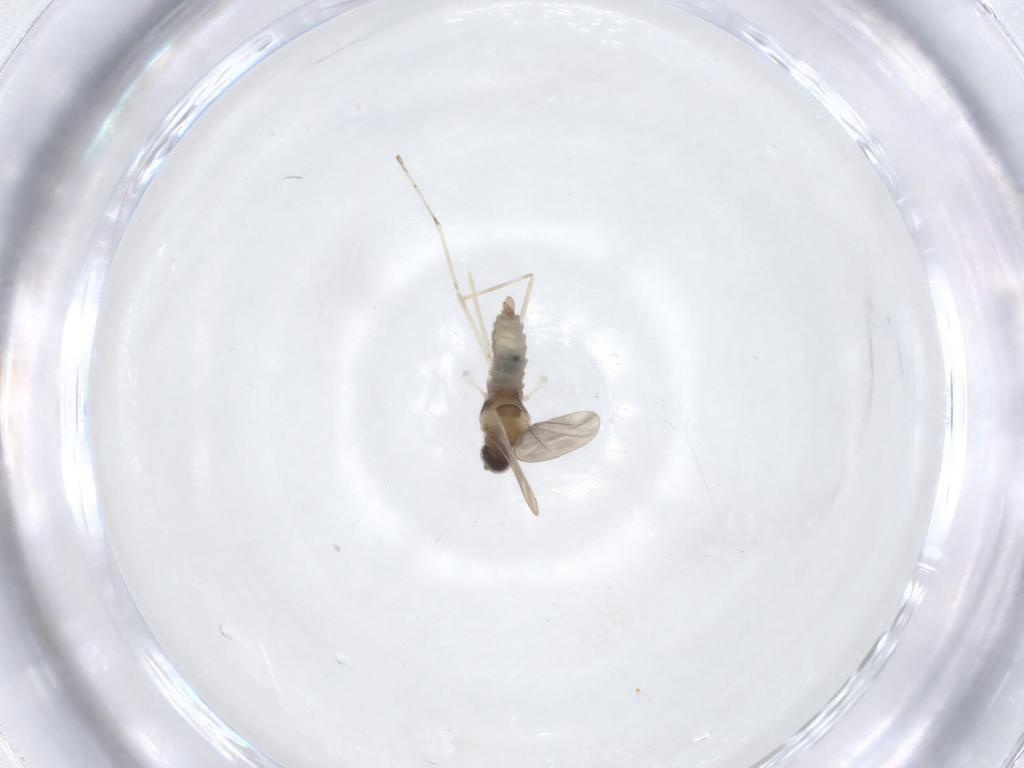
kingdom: Animalia
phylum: Arthropoda
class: Insecta
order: Diptera
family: Cecidomyiidae
